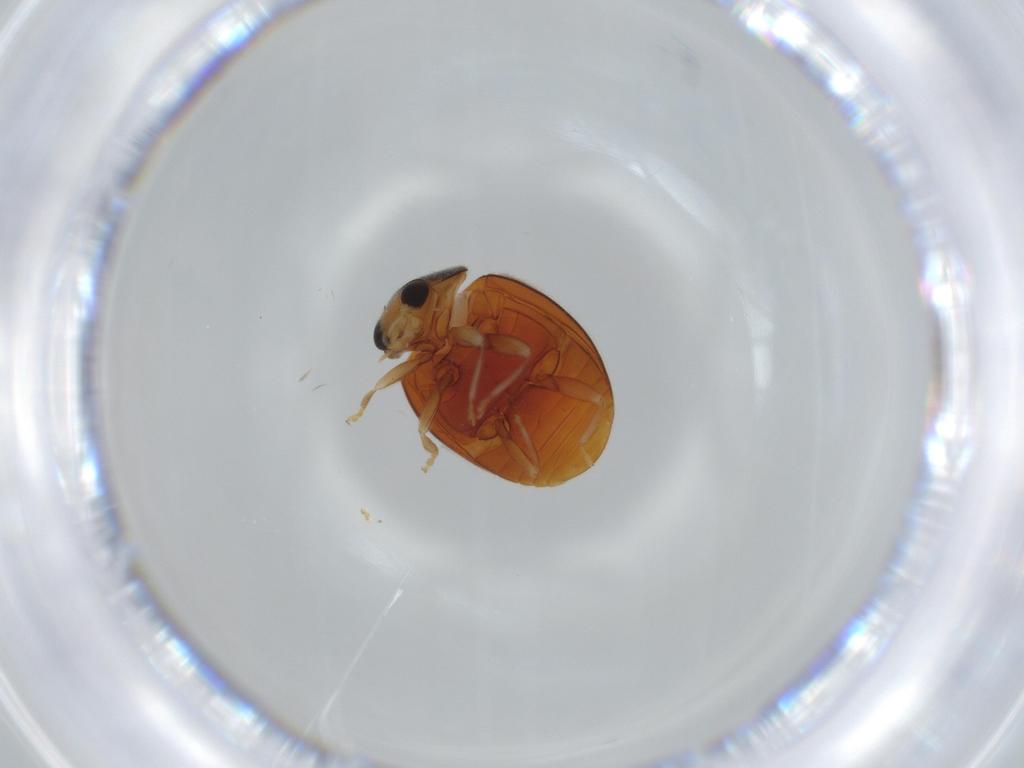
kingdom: Animalia
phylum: Arthropoda
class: Insecta
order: Coleoptera
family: Coccinellidae
